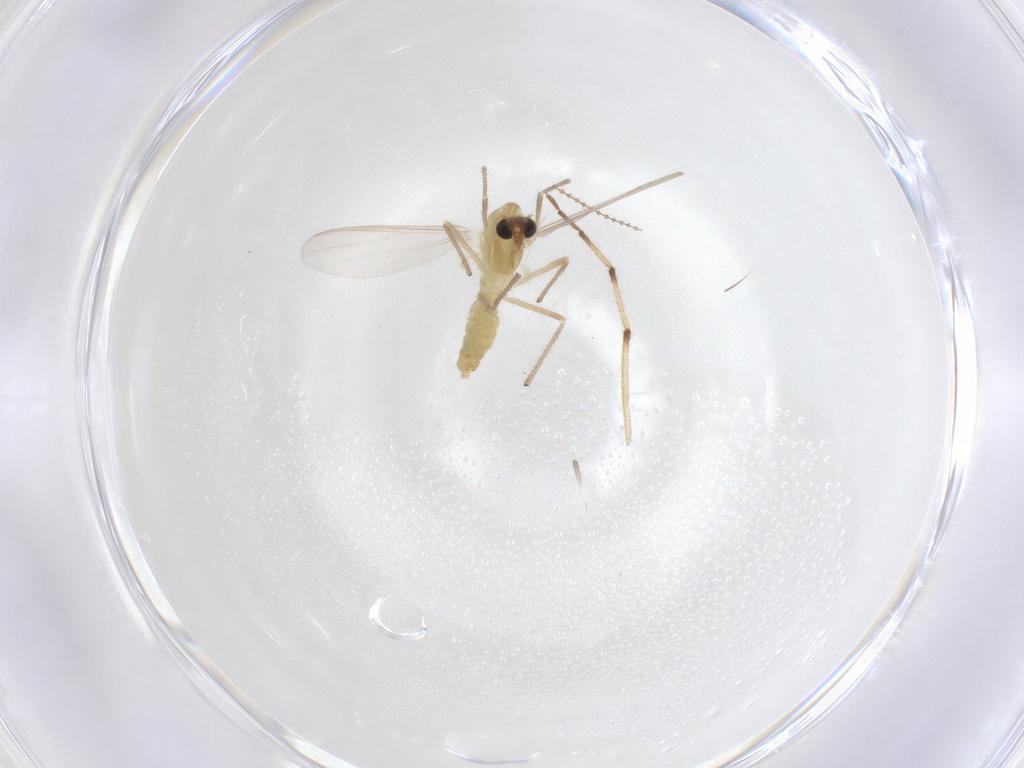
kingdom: Animalia
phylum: Arthropoda
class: Insecta
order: Diptera
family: Chironomidae
